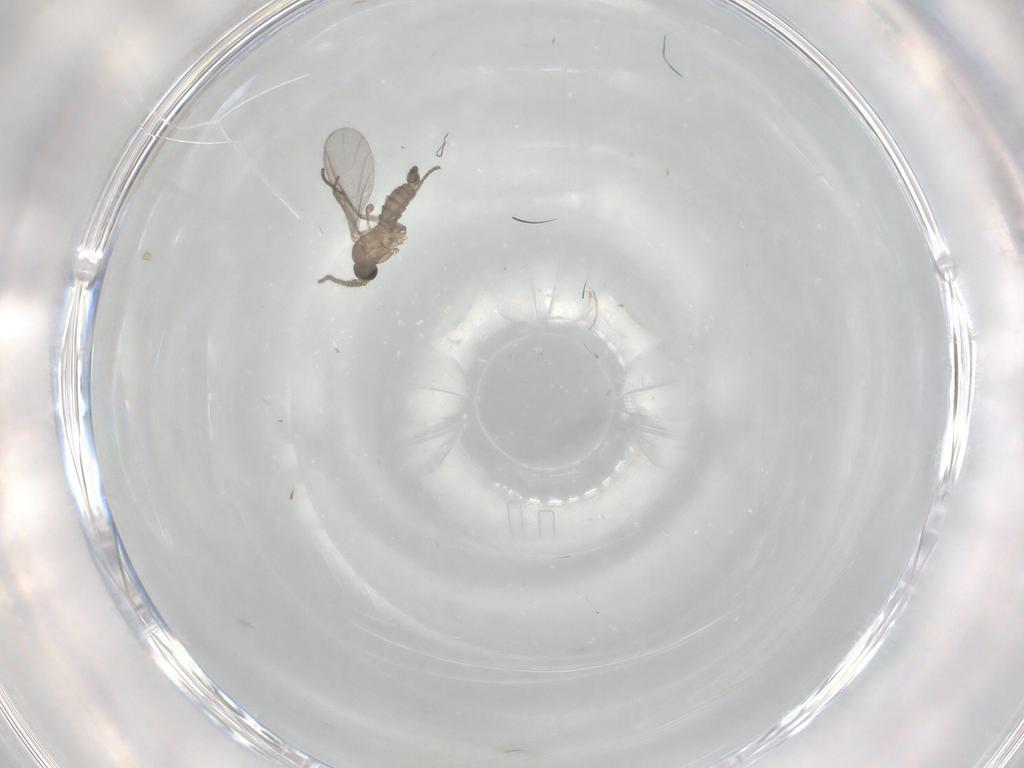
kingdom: Animalia
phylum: Arthropoda
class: Insecta
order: Diptera
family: Sciaridae
